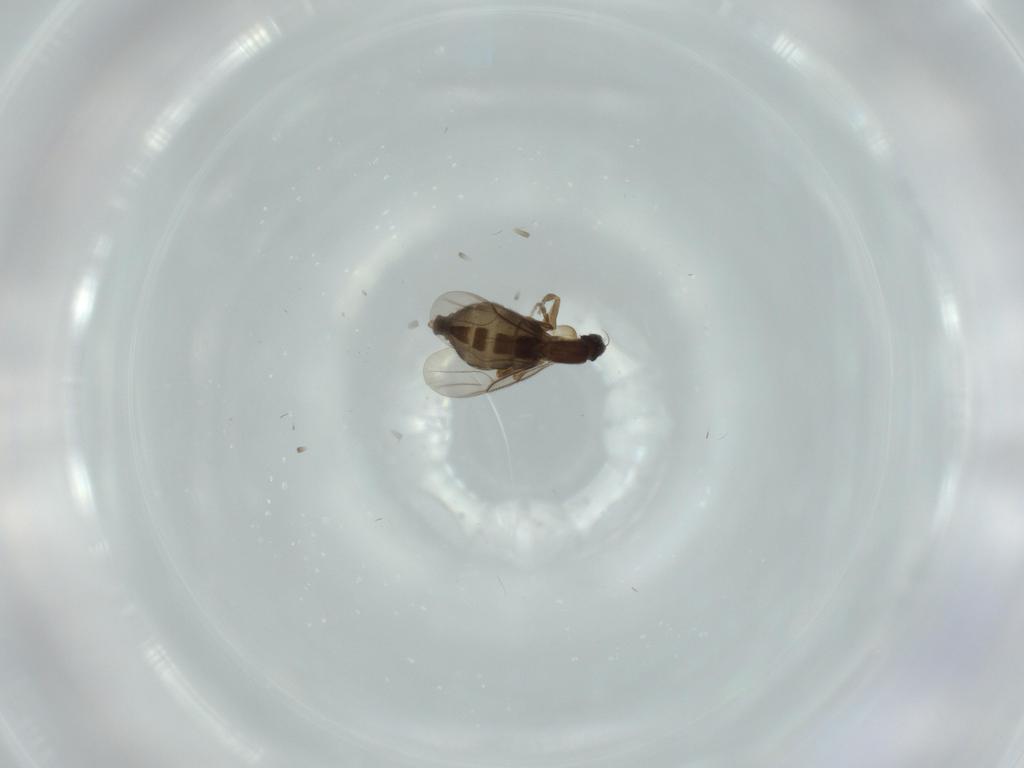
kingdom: Animalia
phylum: Arthropoda
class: Insecta
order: Diptera
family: Phoridae
